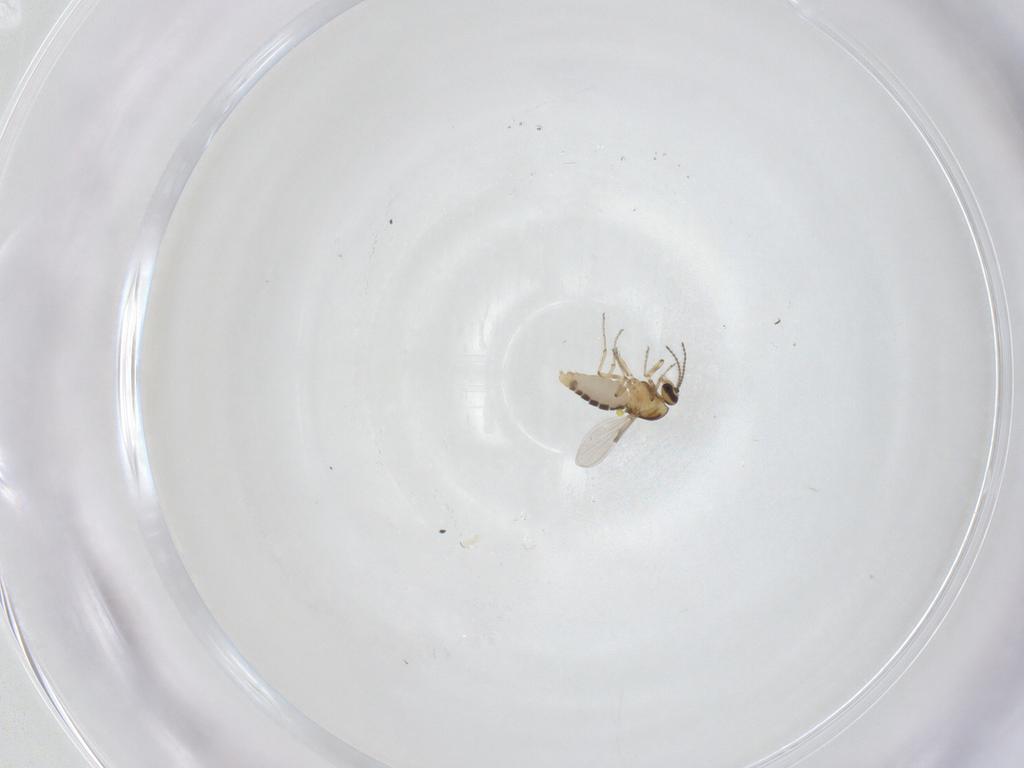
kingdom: Animalia
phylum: Arthropoda
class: Insecta
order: Diptera
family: Ceratopogonidae
